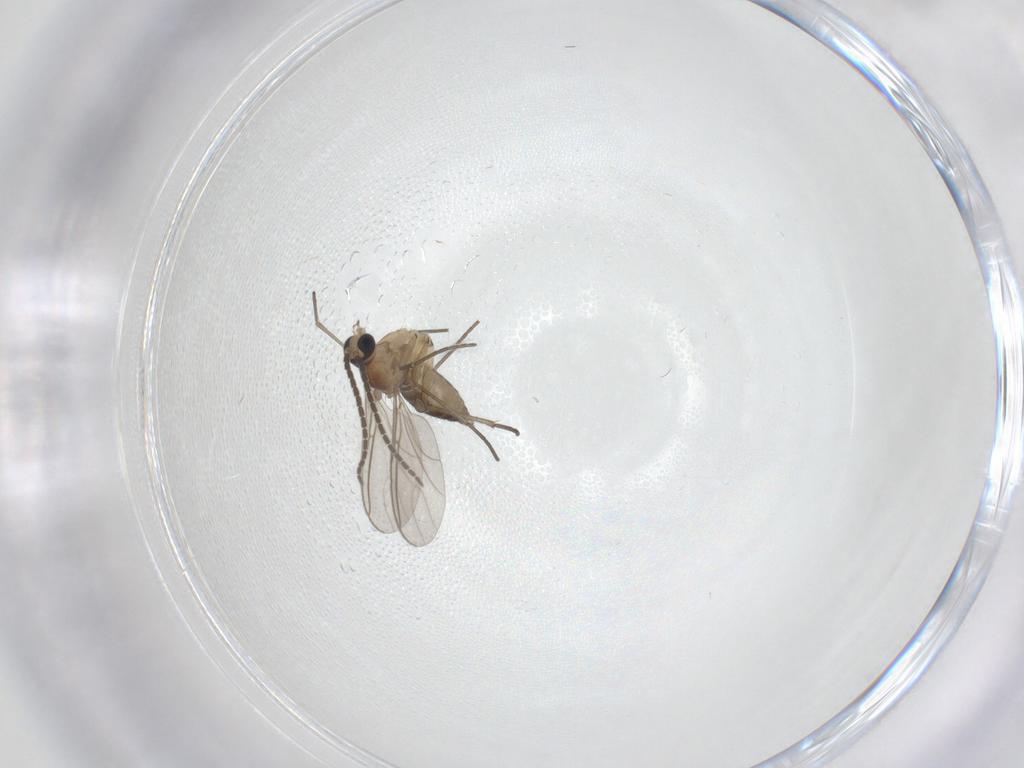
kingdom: Animalia
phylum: Arthropoda
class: Insecta
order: Diptera
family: Sciaridae
